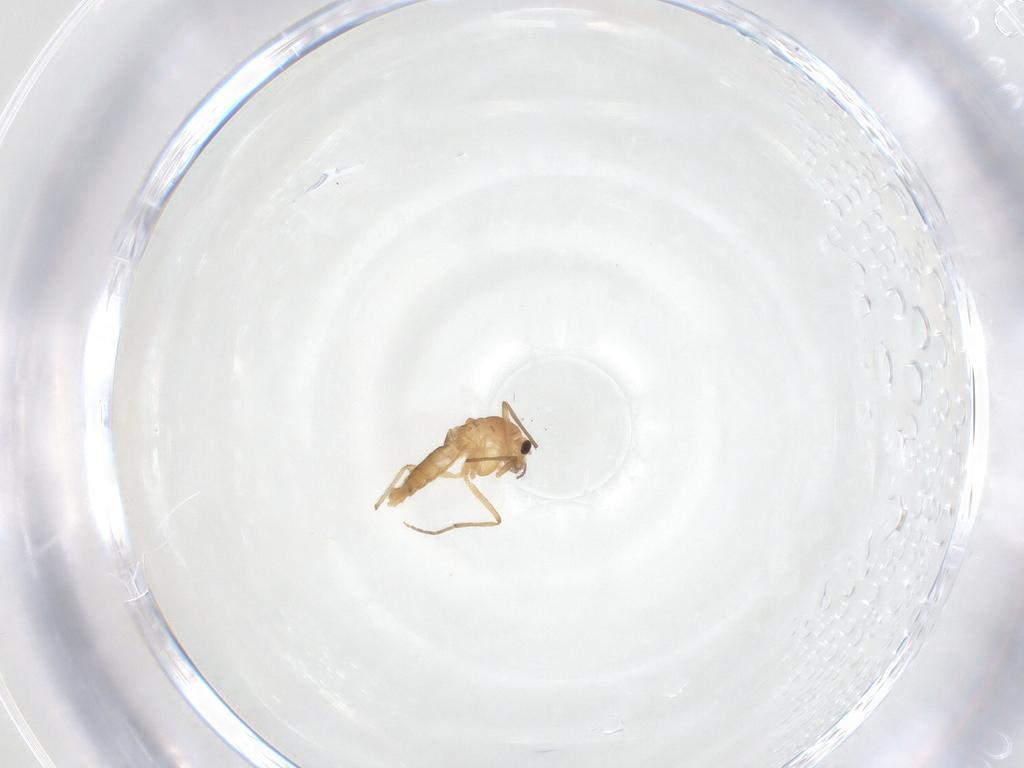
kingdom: Animalia
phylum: Arthropoda
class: Insecta
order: Diptera
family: Chironomidae
